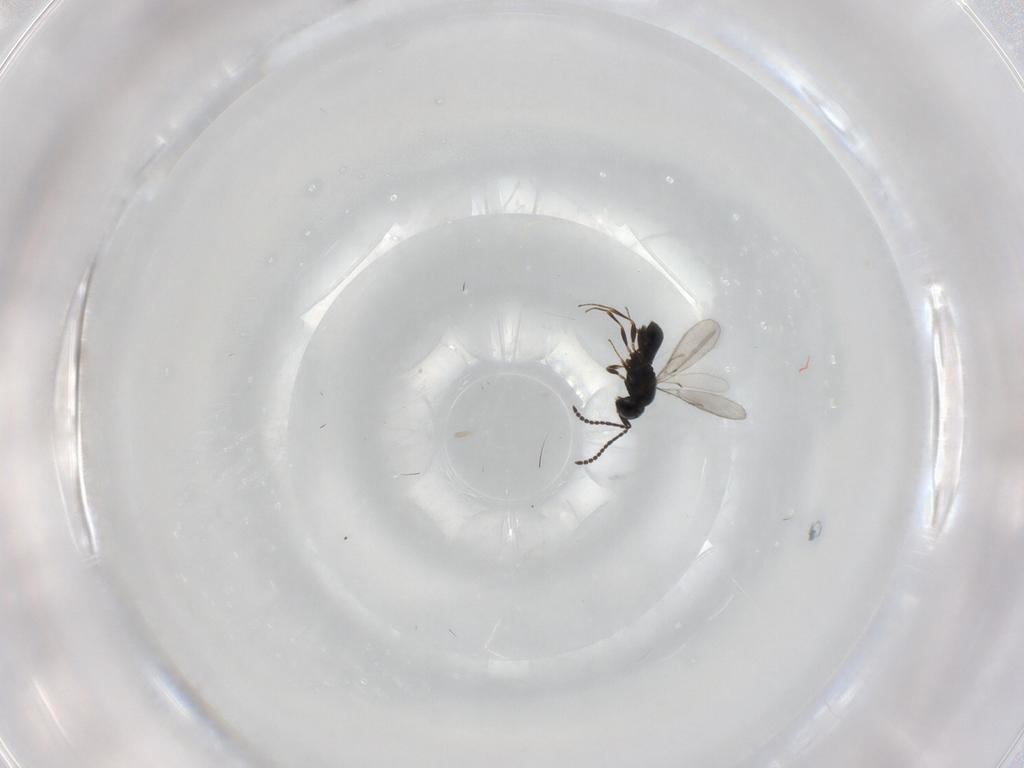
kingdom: Animalia
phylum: Arthropoda
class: Insecta
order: Hymenoptera
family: Scelionidae
